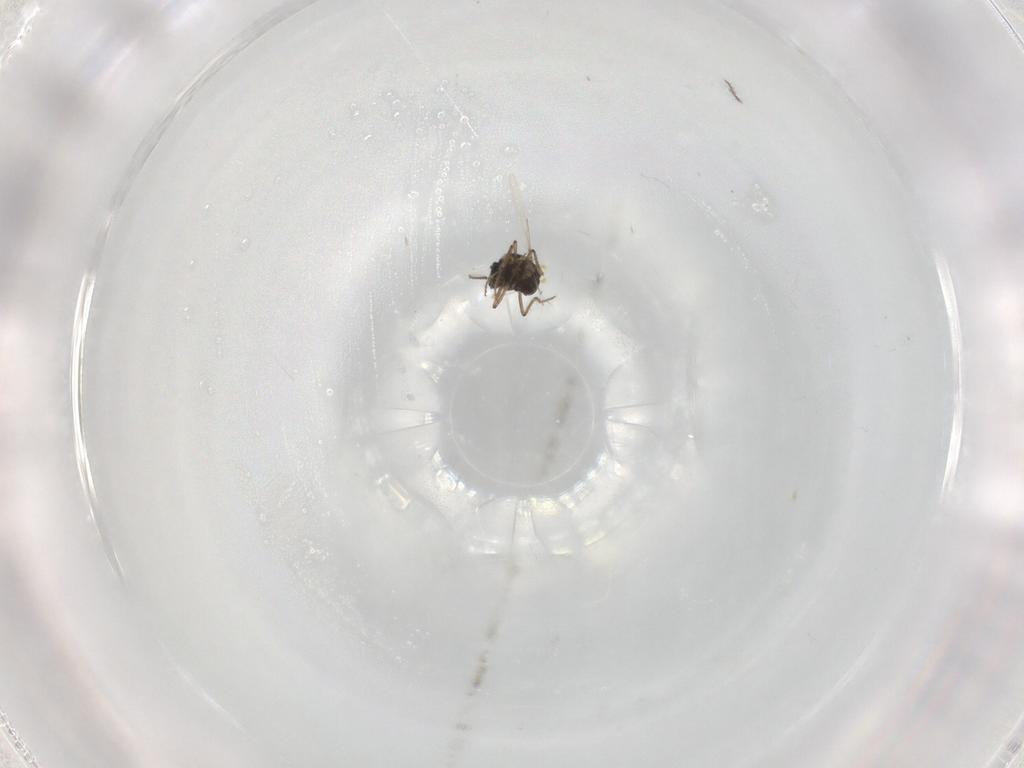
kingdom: Animalia
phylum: Arthropoda
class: Insecta
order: Diptera
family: Ceratopogonidae
